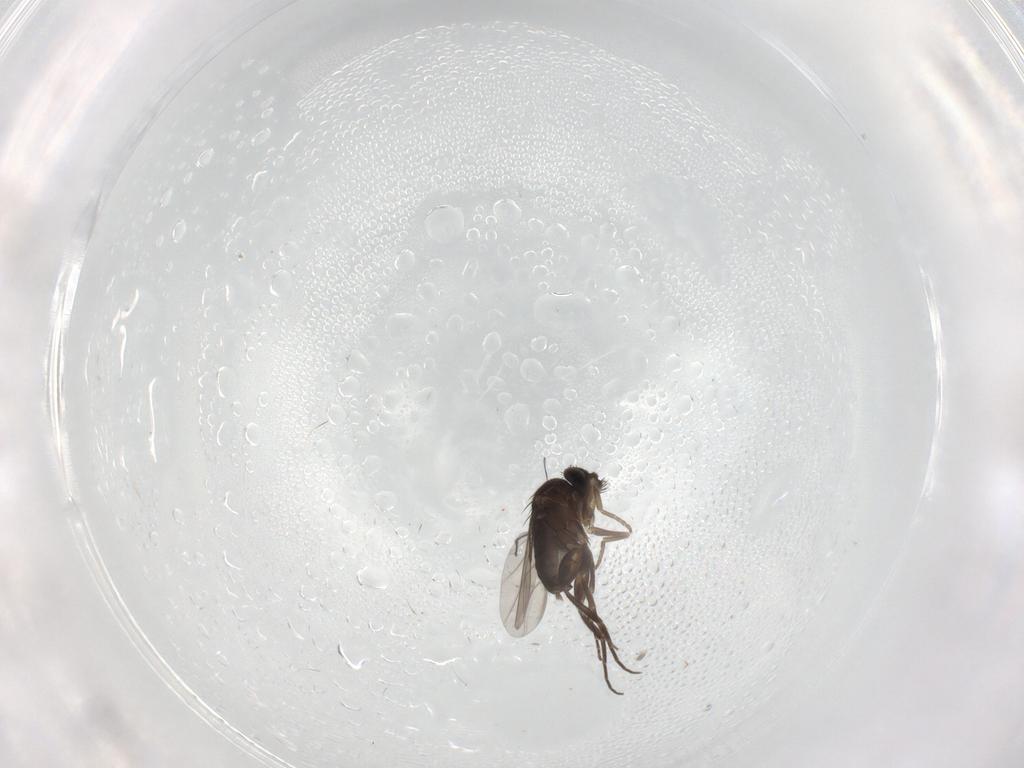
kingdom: Animalia
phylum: Arthropoda
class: Insecta
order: Diptera
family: Phoridae
